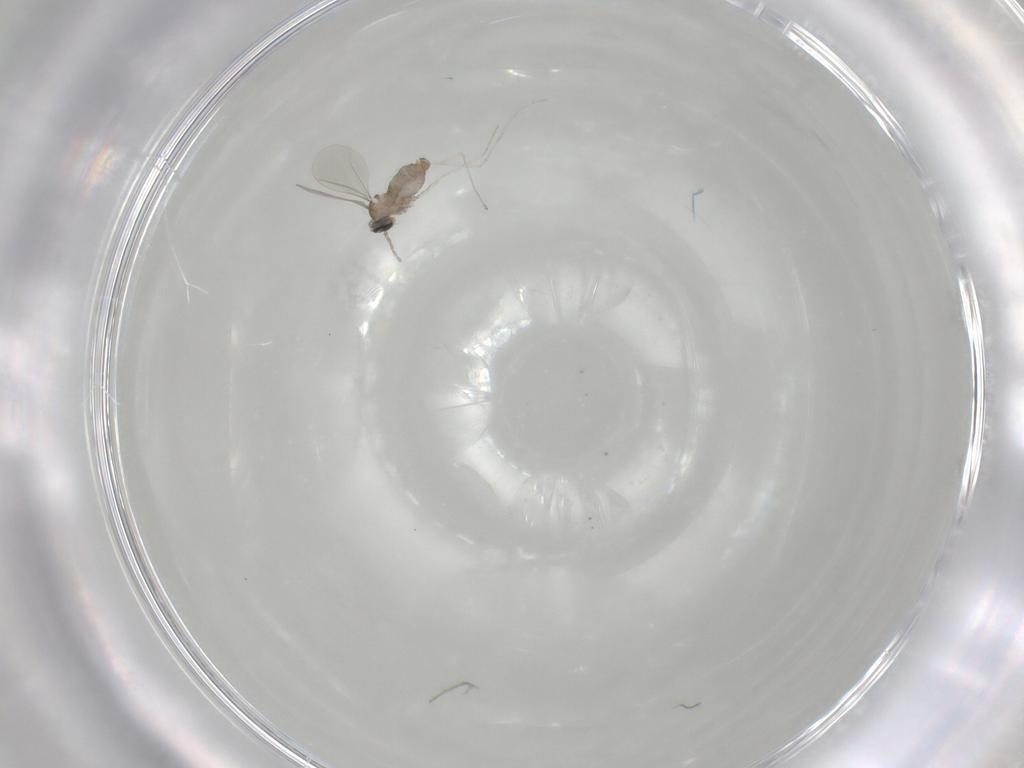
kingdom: Animalia
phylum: Arthropoda
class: Insecta
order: Diptera
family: Cecidomyiidae
